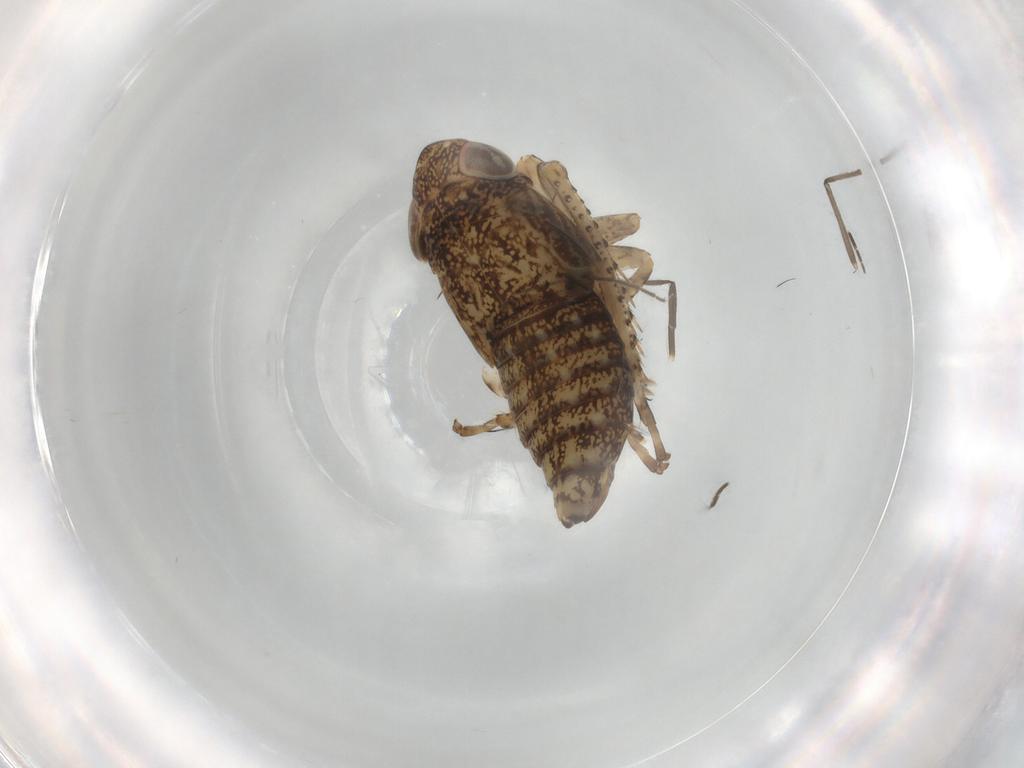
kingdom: Animalia
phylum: Arthropoda
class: Insecta
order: Hemiptera
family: Cicadellidae
